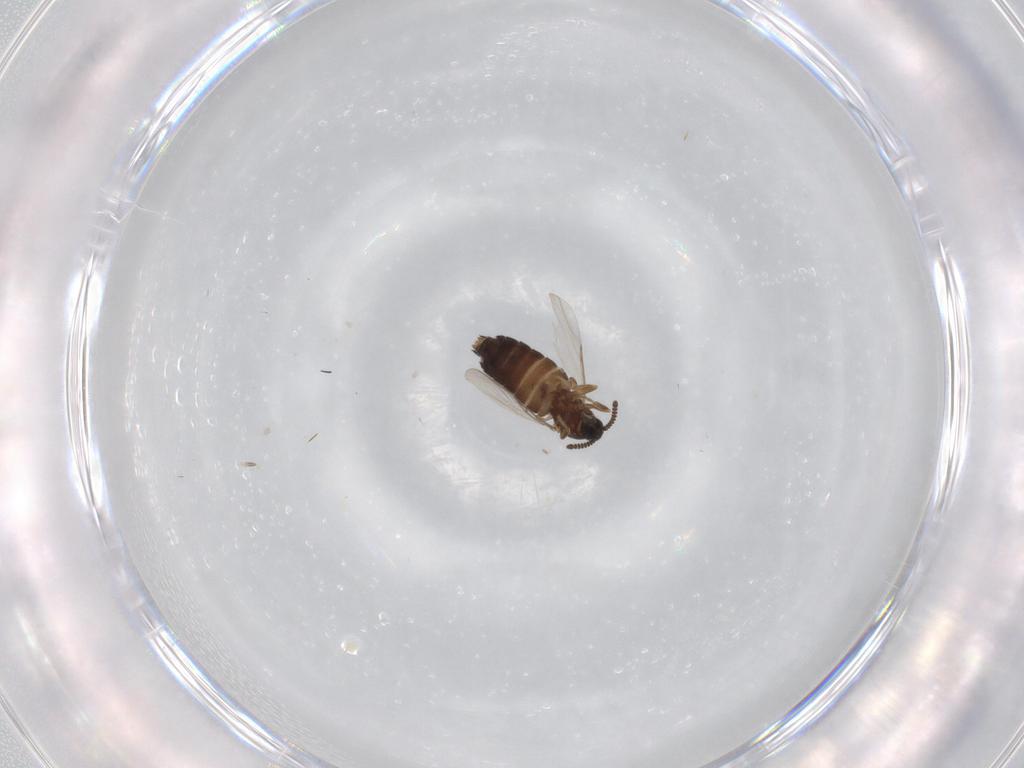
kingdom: Animalia
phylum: Arthropoda
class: Insecta
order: Diptera
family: Scatopsidae
